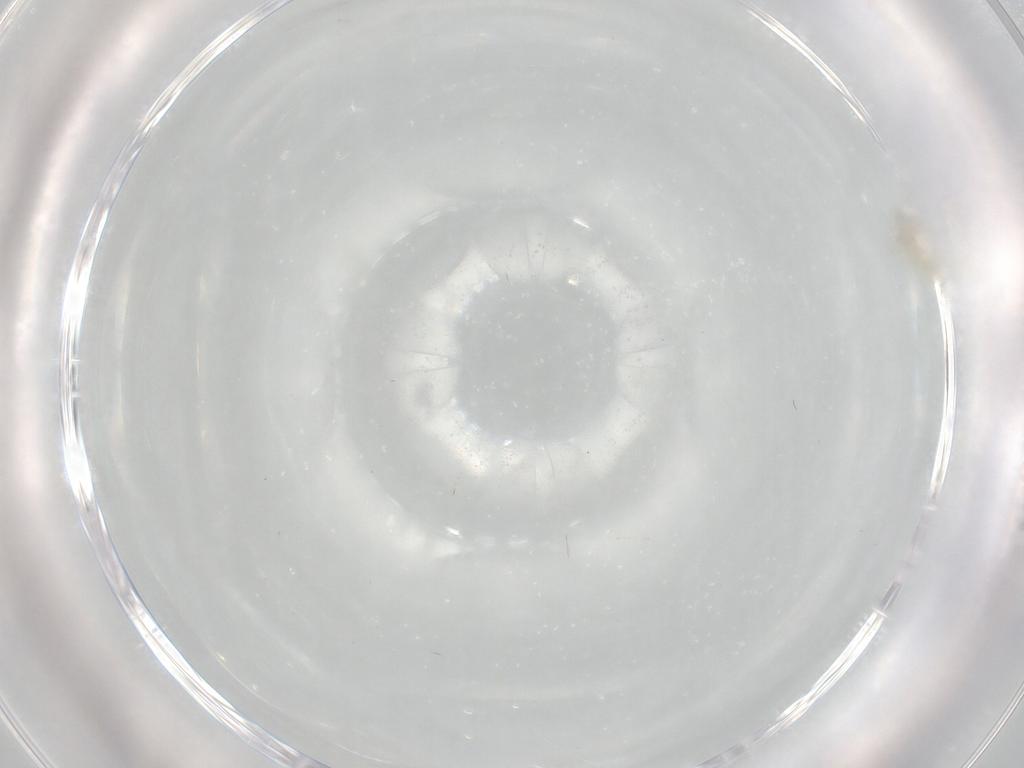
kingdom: Animalia
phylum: Arthropoda
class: Insecta
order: Diptera
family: Cecidomyiidae
